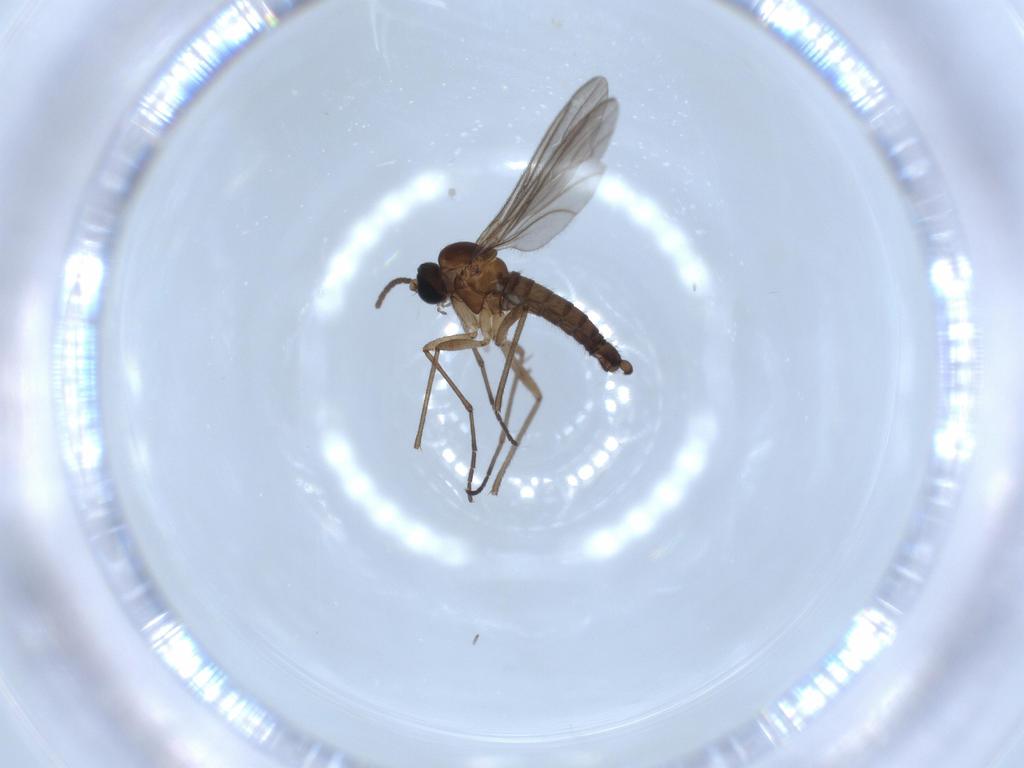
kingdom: Animalia
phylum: Arthropoda
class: Insecta
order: Diptera
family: Sciaridae
